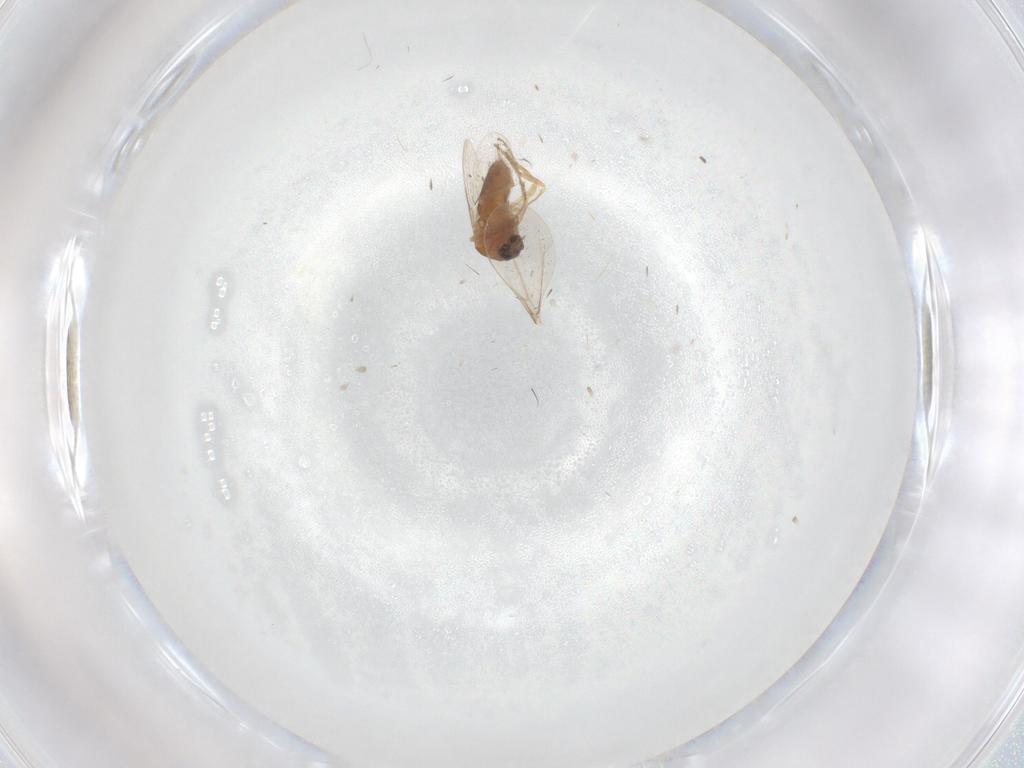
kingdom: Animalia
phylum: Arthropoda
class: Insecta
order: Diptera
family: Ceratopogonidae
